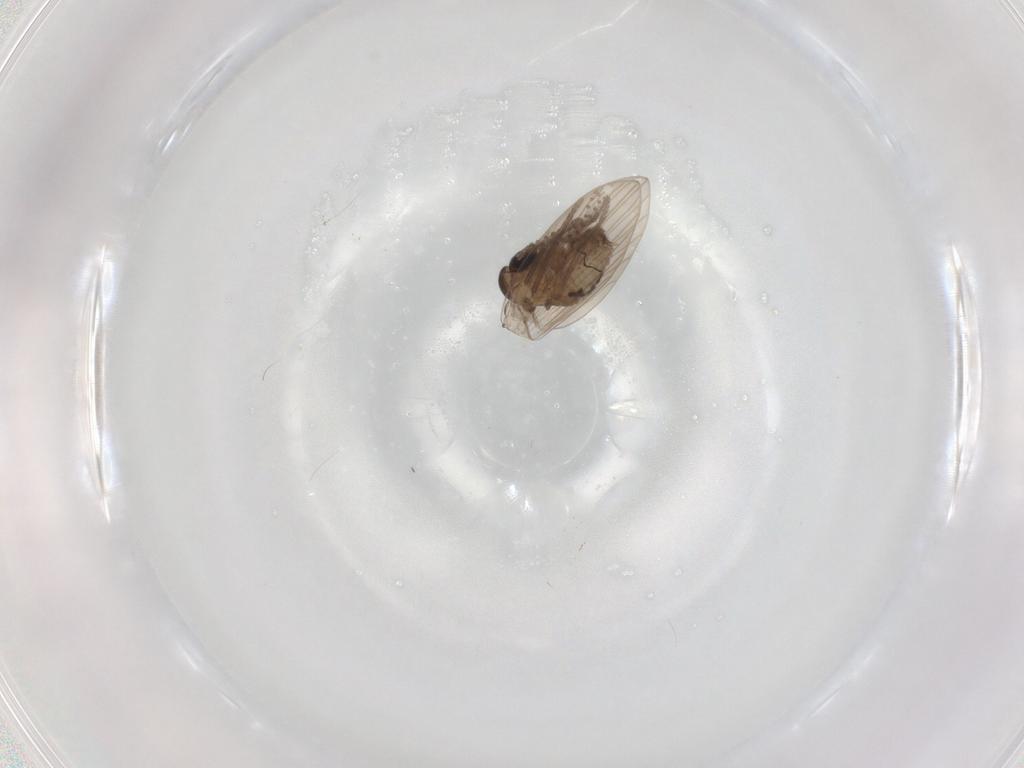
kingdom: Animalia
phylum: Arthropoda
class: Insecta
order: Diptera
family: Psychodidae
